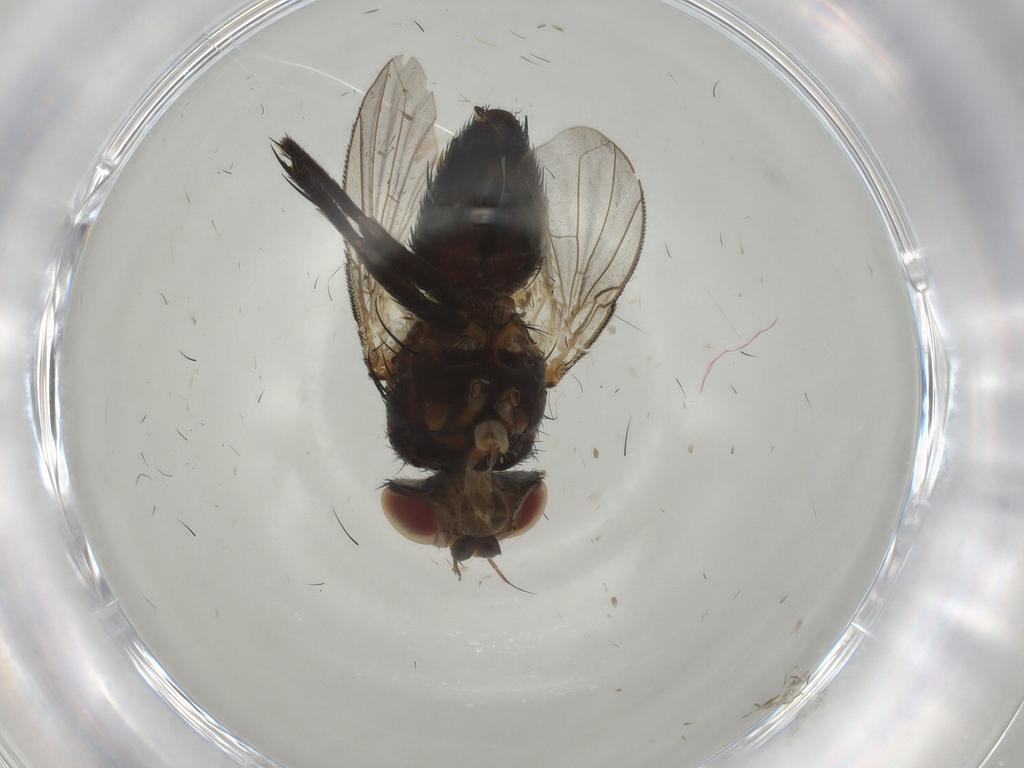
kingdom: Animalia
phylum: Arthropoda
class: Insecta
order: Diptera
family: Tachinidae
